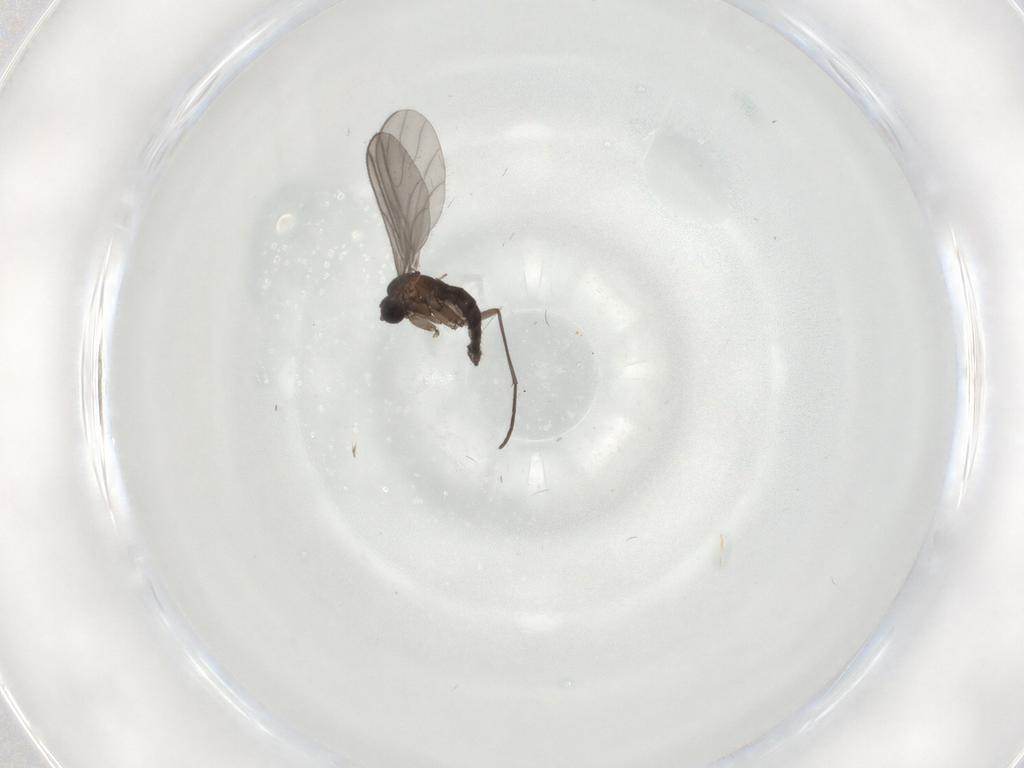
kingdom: Animalia
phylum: Arthropoda
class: Insecta
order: Diptera
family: Sciaridae
